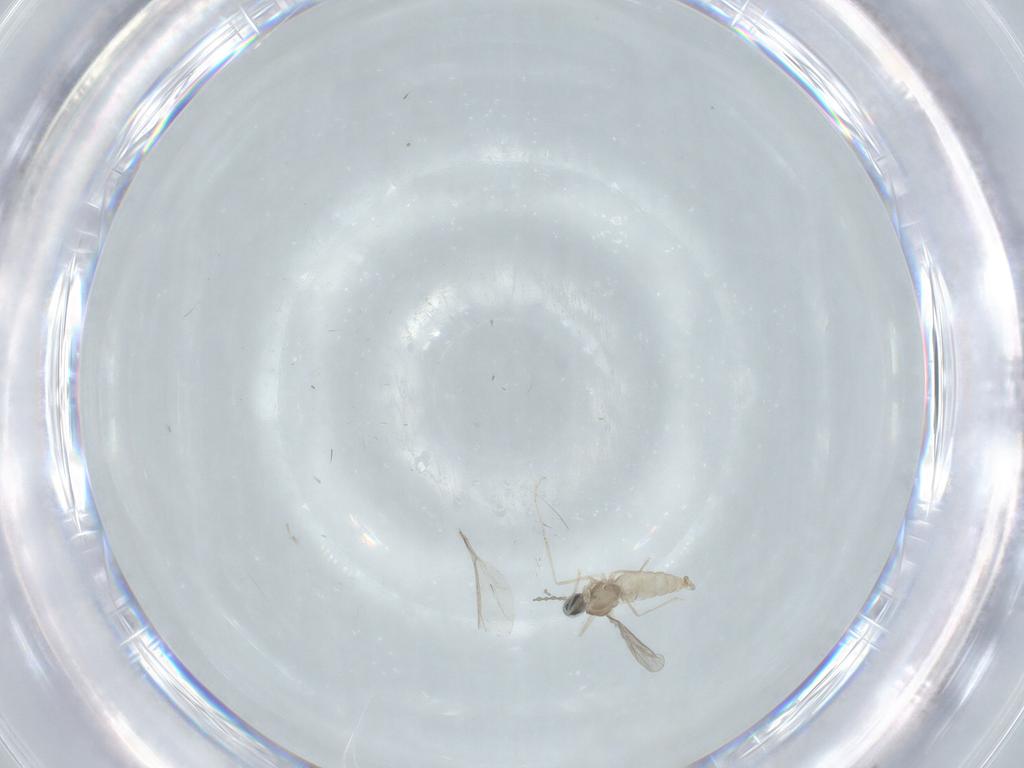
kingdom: Animalia
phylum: Arthropoda
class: Insecta
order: Diptera
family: Cecidomyiidae
